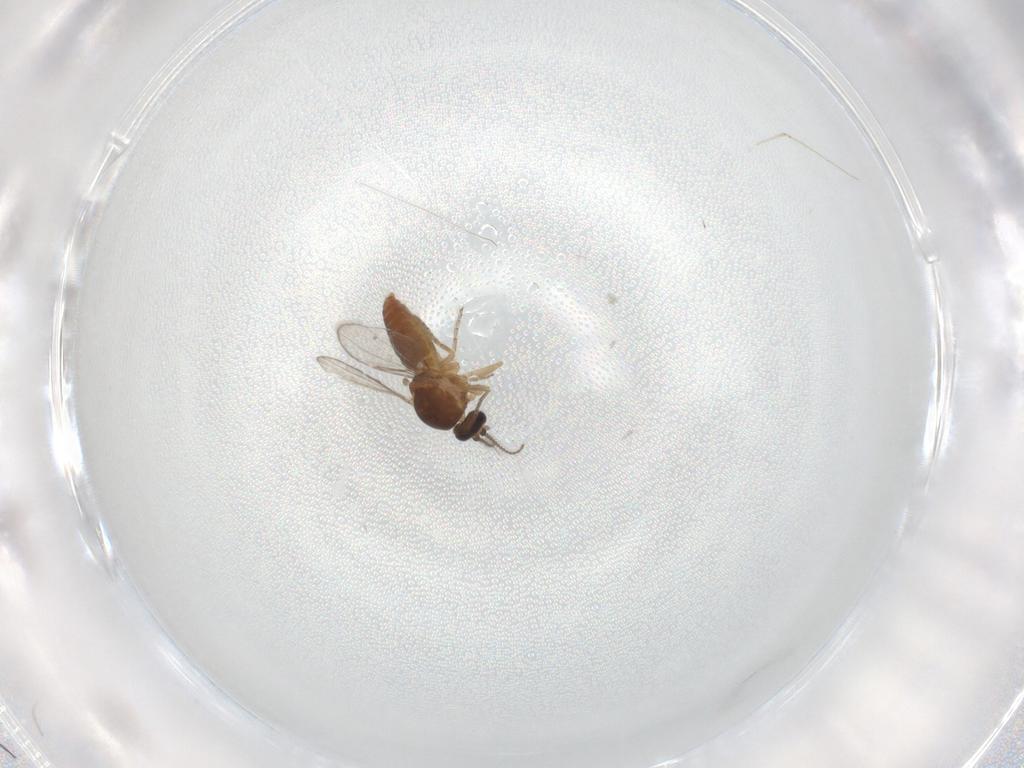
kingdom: Animalia
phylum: Arthropoda
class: Insecta
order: Diptera
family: Ceratopogonidae
